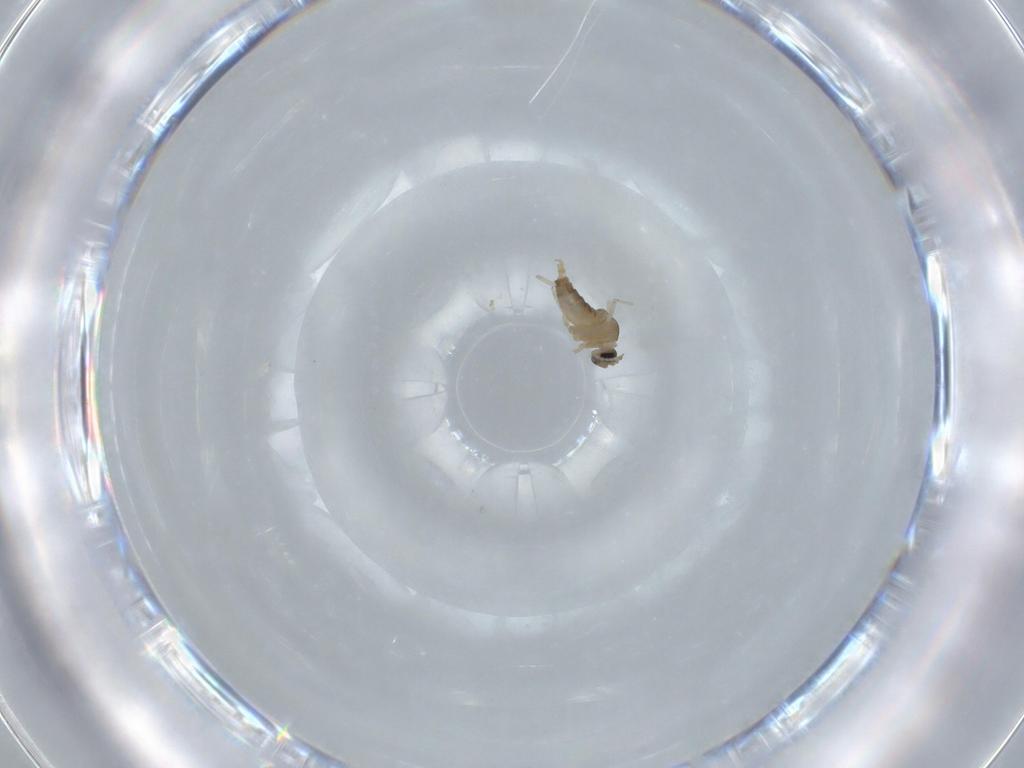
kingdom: Animalia
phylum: Arthropoda
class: Insecta
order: Diptera
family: Cecidomyiidae
